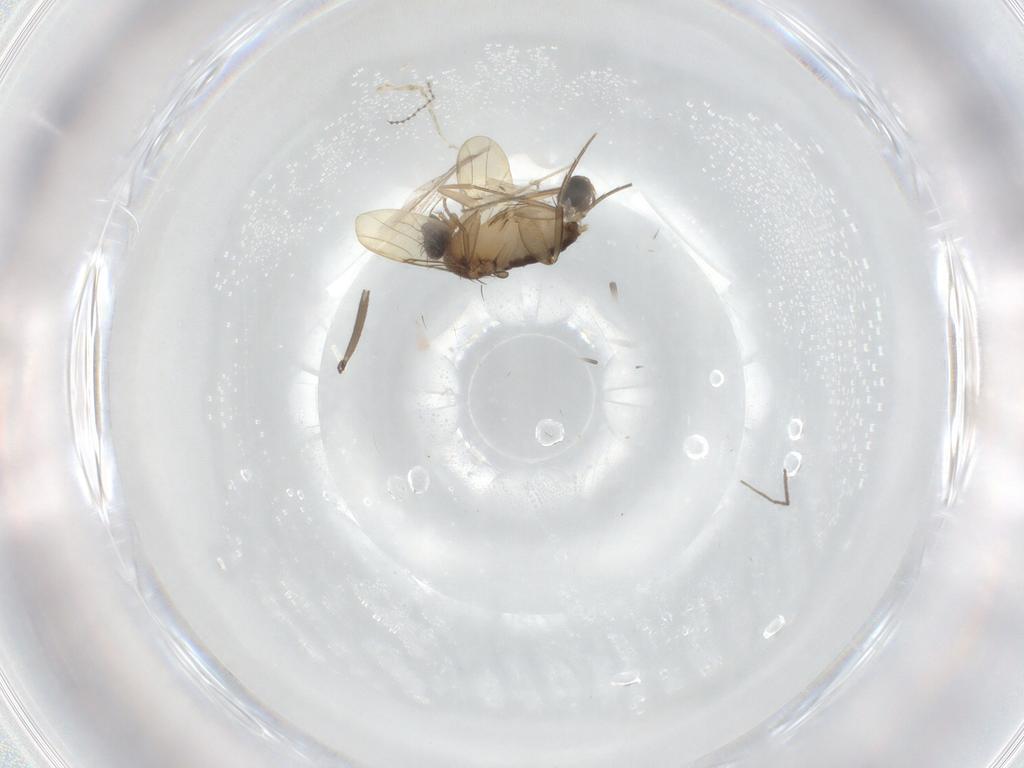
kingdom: Animalia
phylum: Arthropoda
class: Insecta
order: Diptera
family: Chironomidae
